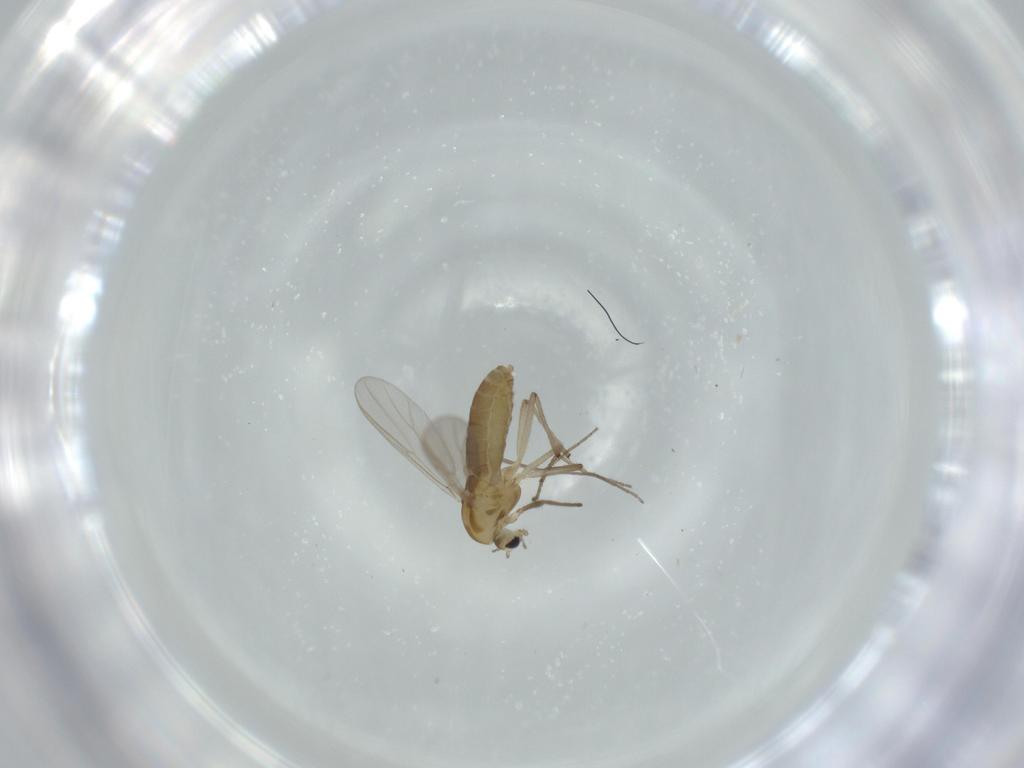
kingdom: Animalia
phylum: Arthropoda
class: Insecta
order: Diptera
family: Chironomidae
